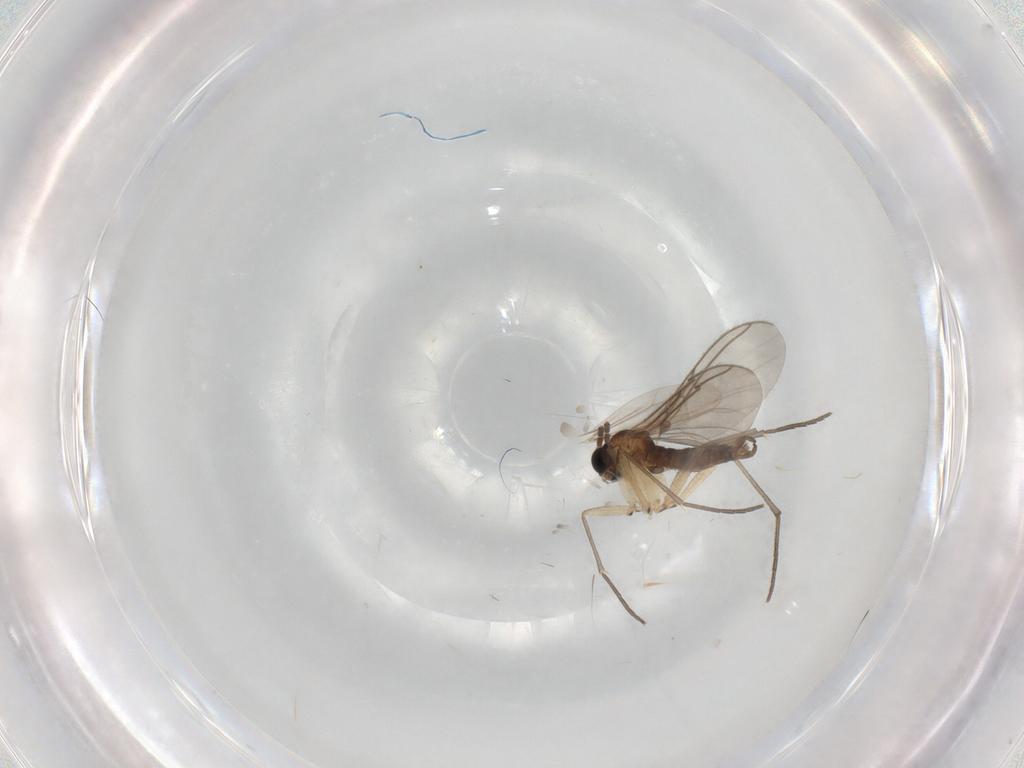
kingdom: Animalia
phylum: Arthropoda
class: Insecta
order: Diptera
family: Sciaridae
